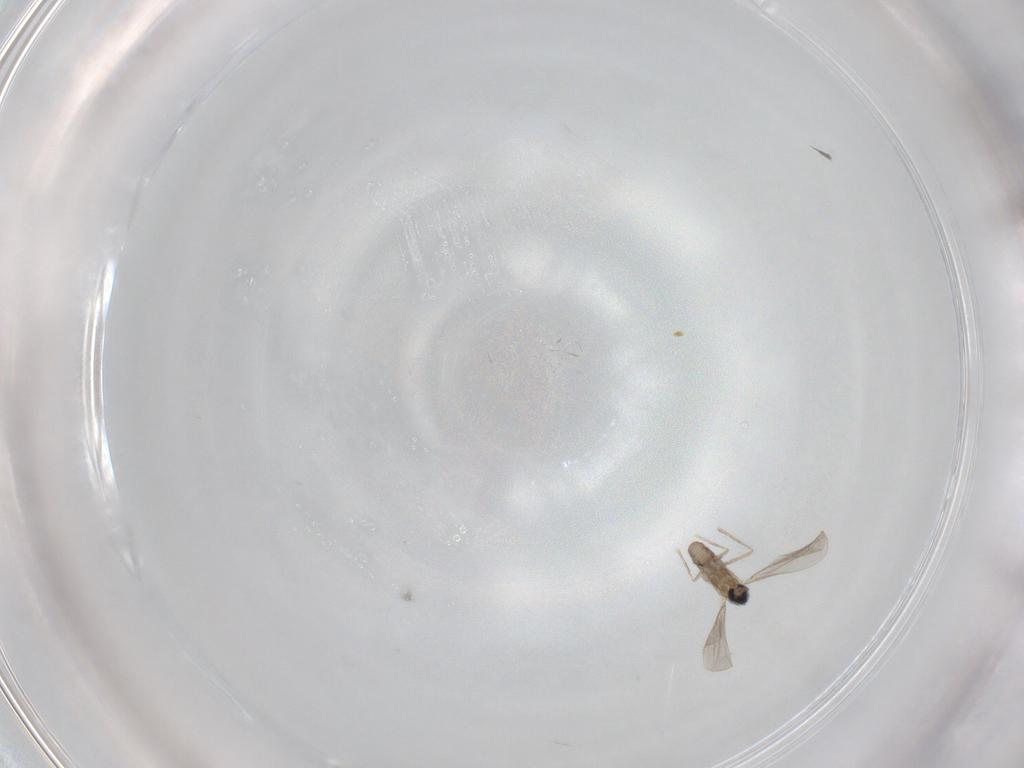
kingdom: Animalia
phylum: Arthropoda
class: Insecta
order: Diptera
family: Cecidomyiidae
